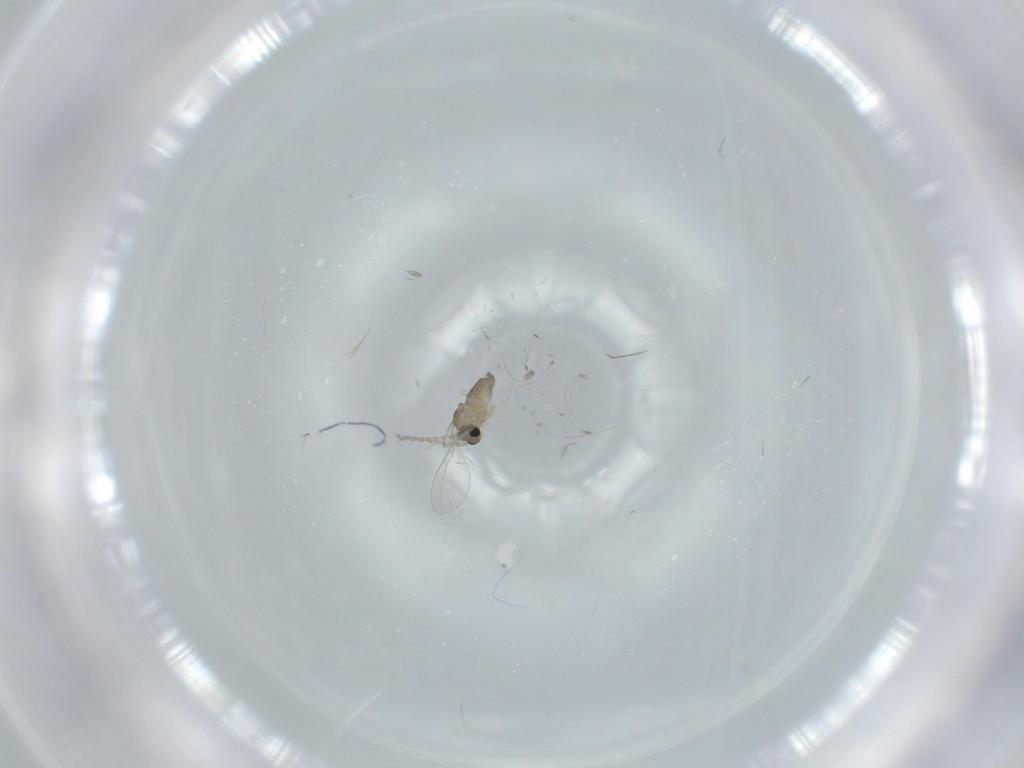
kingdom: Animalia
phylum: Arthropoda
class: Insecta
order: Diptera
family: Cecidomyiidae
